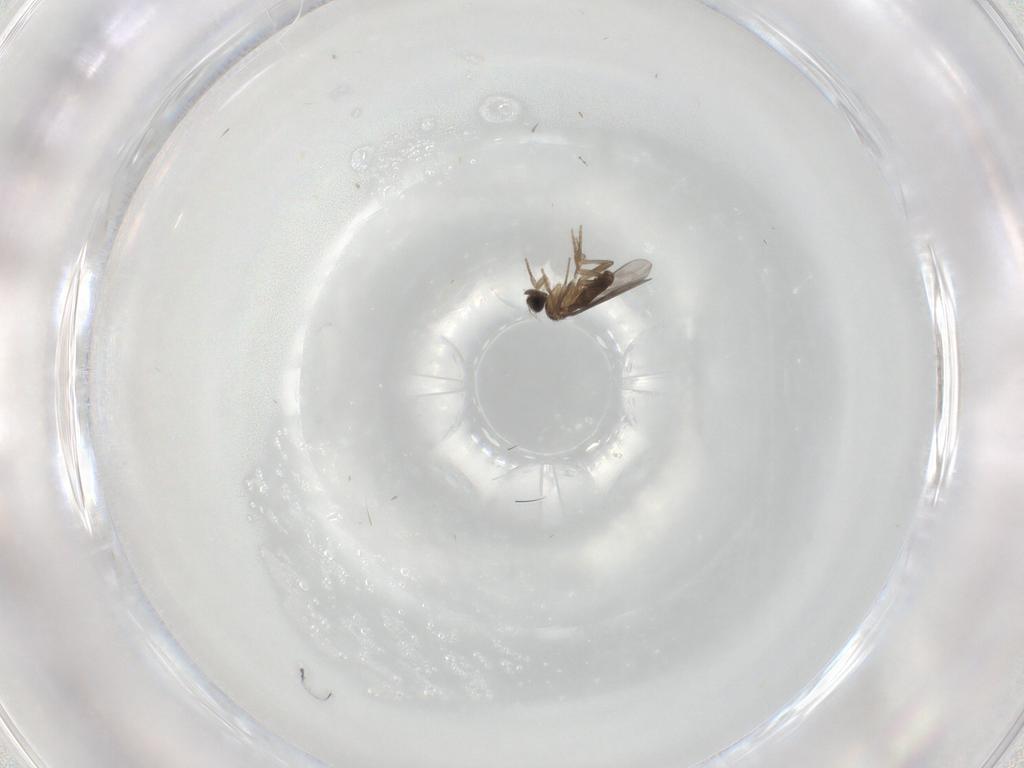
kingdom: Animalia
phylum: Arthropoda
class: Insecta
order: Diptera
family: Sciaridae
